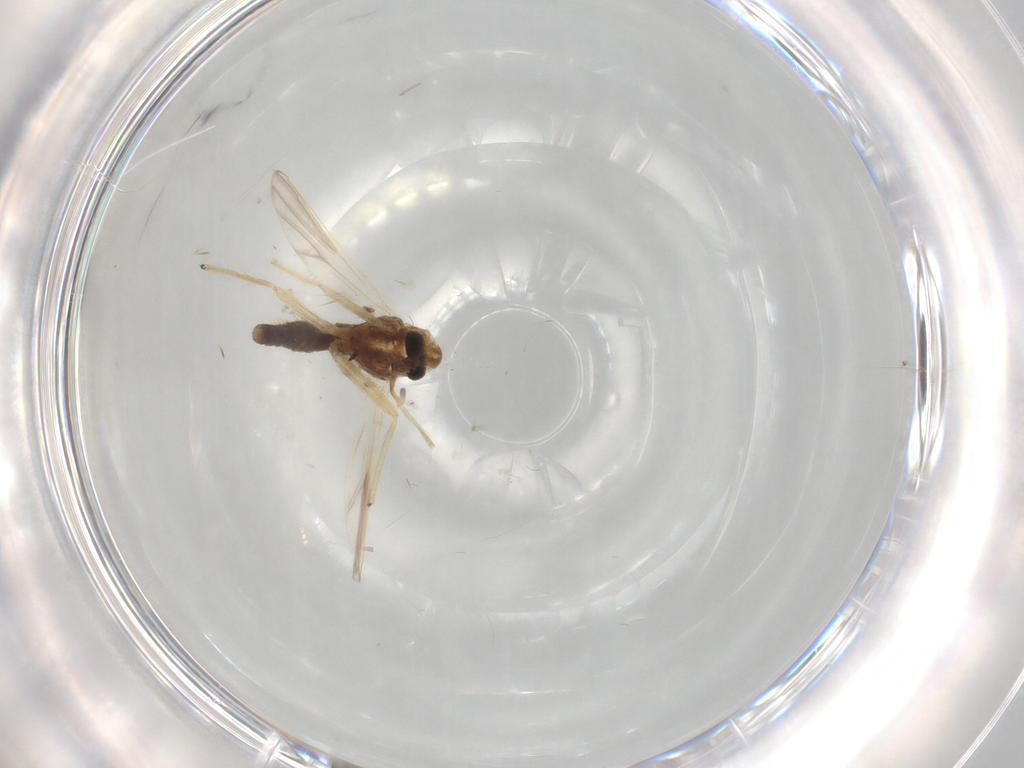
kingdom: Animalia
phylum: Arthropoda
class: Insecta
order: Diptera
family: Chironomidae
